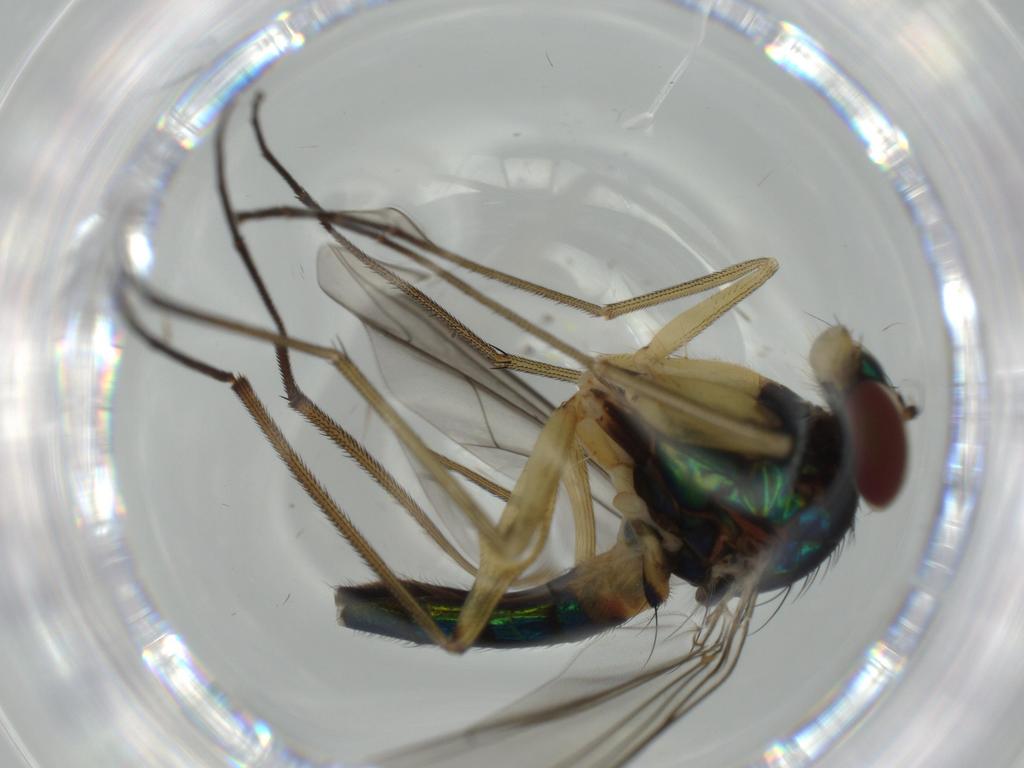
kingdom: Animalia
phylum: Arthropoda
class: Insecta
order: Diptera
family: Dolichopodidae
